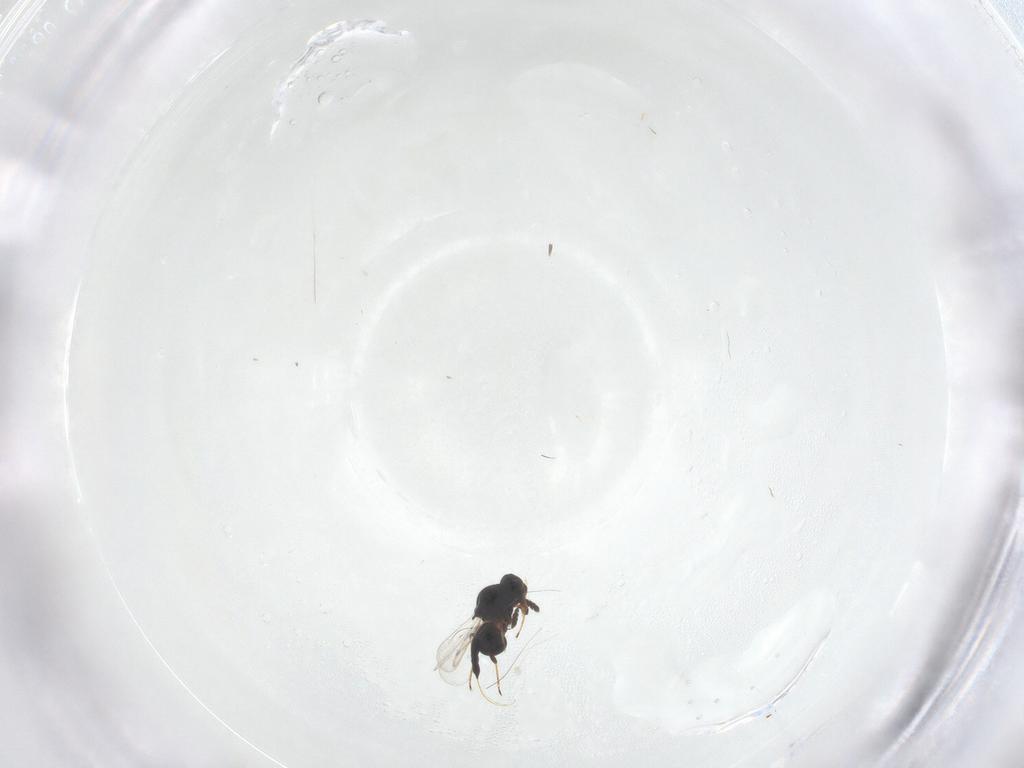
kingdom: Animalia
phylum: Arthropoda
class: Insecta
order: Hymenoptera
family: Platygastridae
